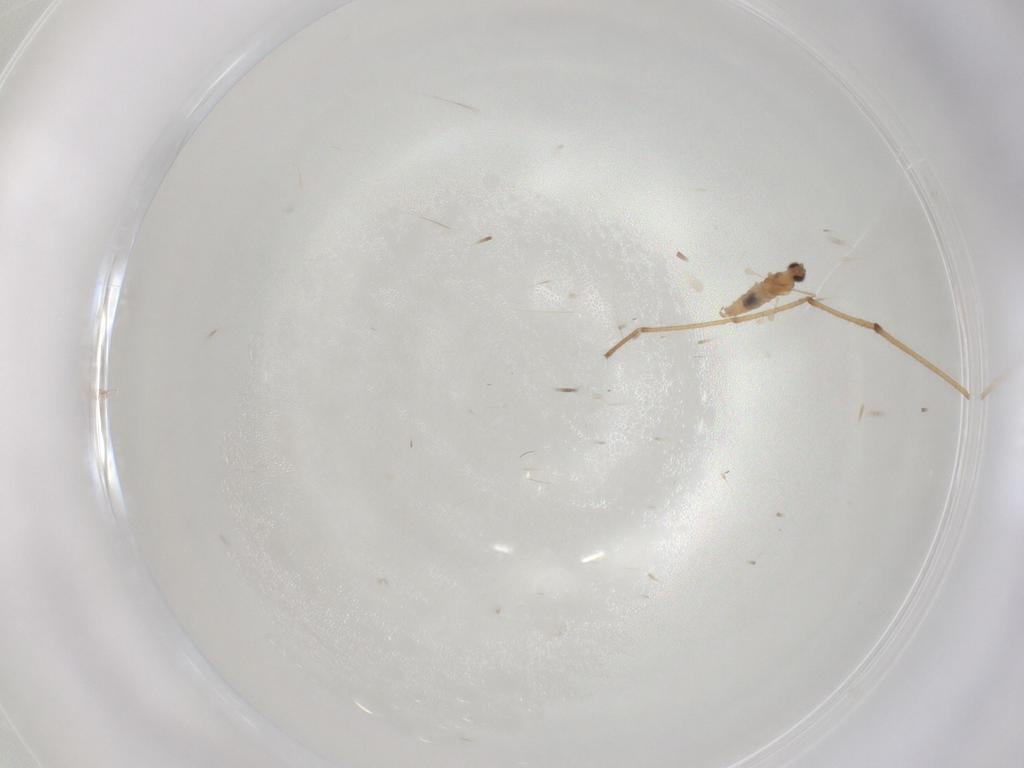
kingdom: Animalia
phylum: Arthropoda
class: Insecta
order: Diptera
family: Cecidomyiidae
